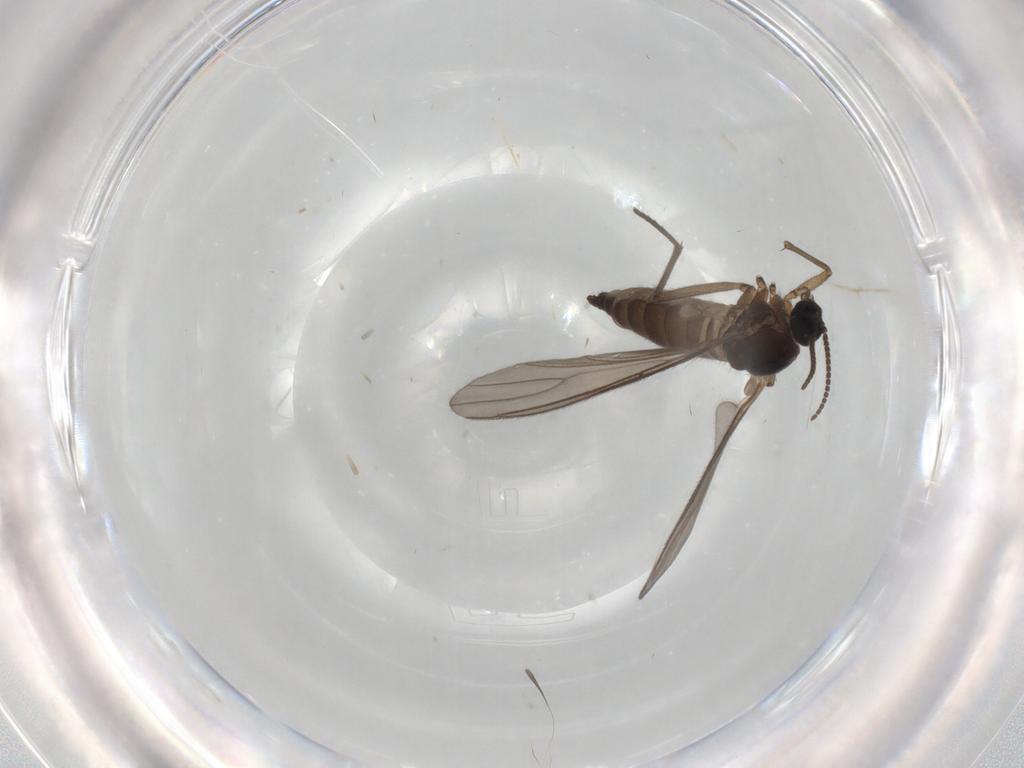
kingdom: Animalia
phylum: Arthropoda
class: Insecta
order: Diptera
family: Sciaridae
